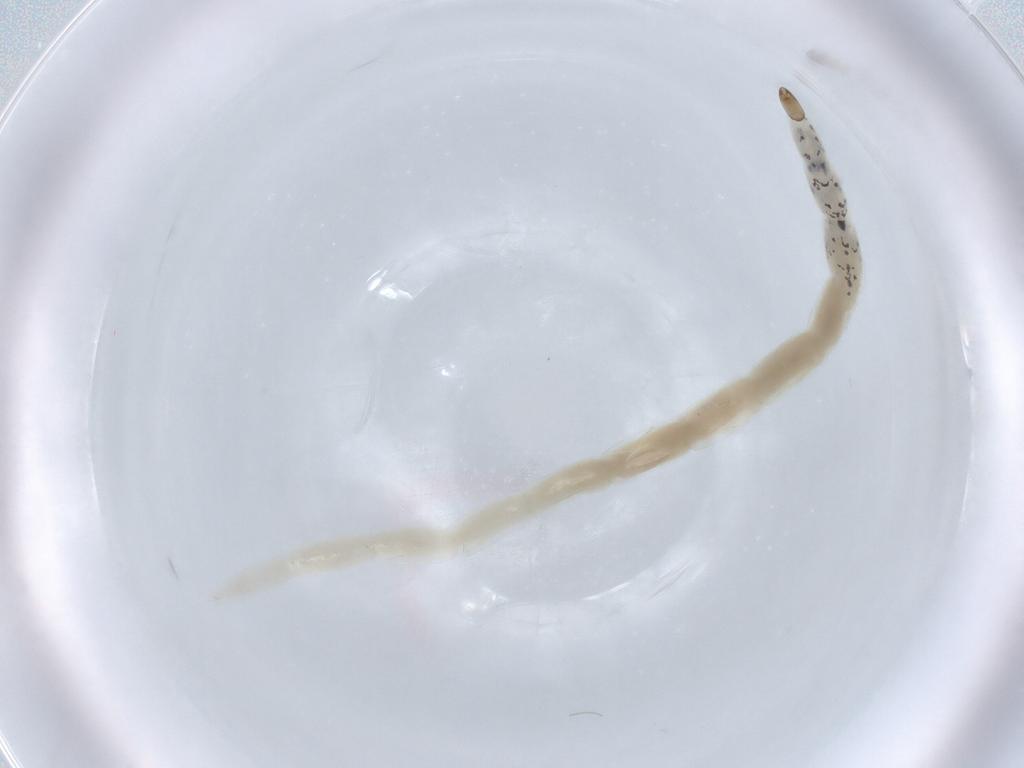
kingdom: Animalia
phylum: Arthropoda
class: Insecta
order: Diptera
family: Ceratopogonidae
